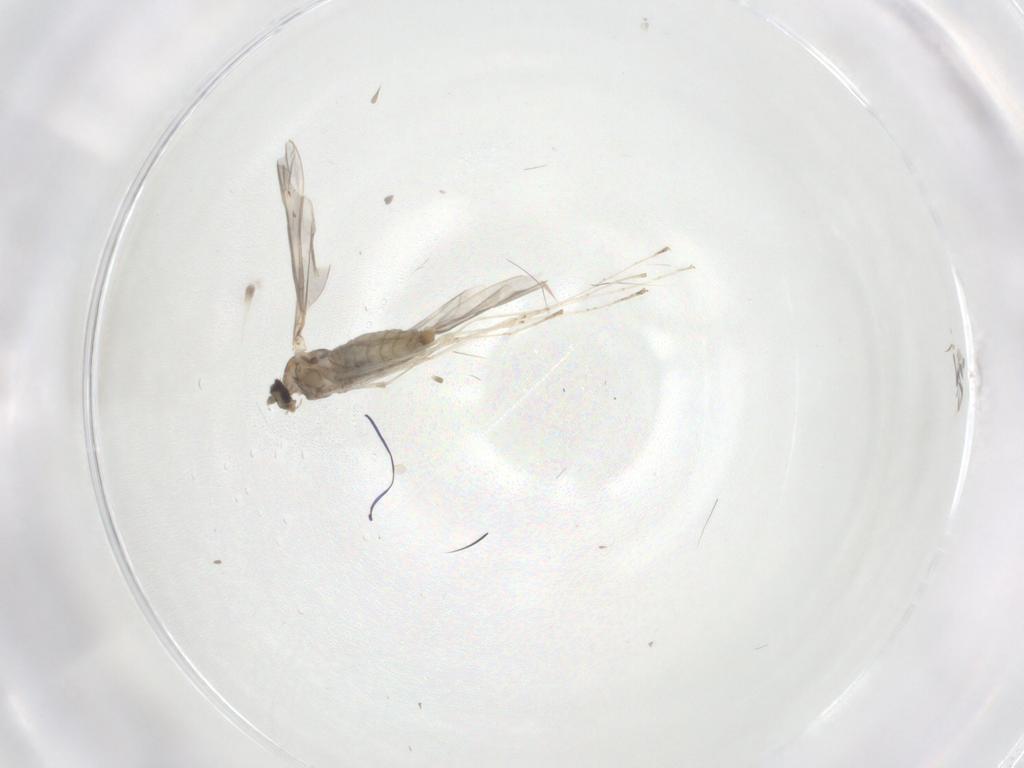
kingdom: Animalia
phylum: Arthropoda
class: Insecta
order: Diptera
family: Cecidomyiidae
